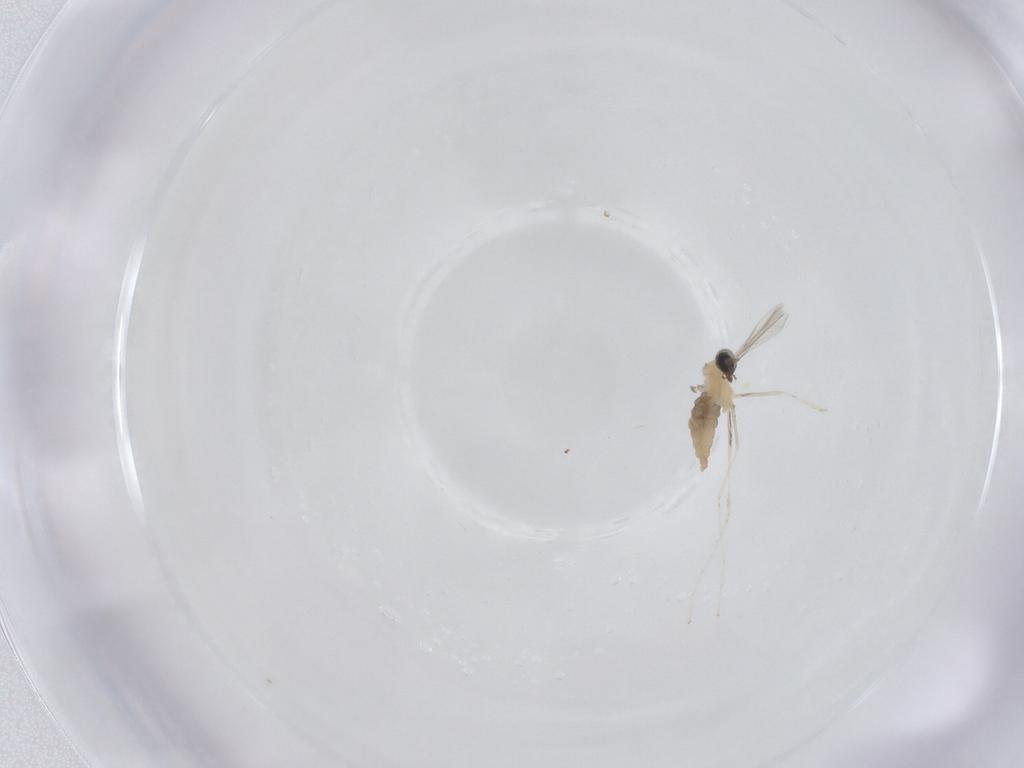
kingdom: Animalia
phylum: Arthropoda
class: Insecta
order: Diptera
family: Cecidomyiidae
